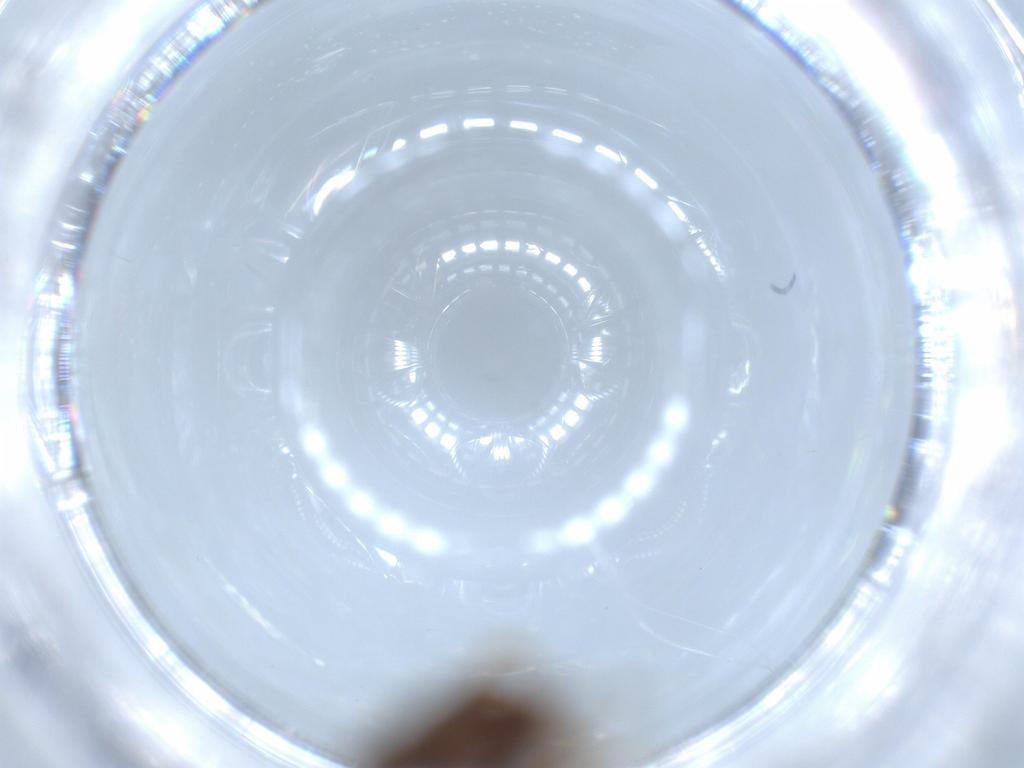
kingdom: Animalia
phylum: Arthropoda
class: Insecta
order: Hymenoptera
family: Formicidae
